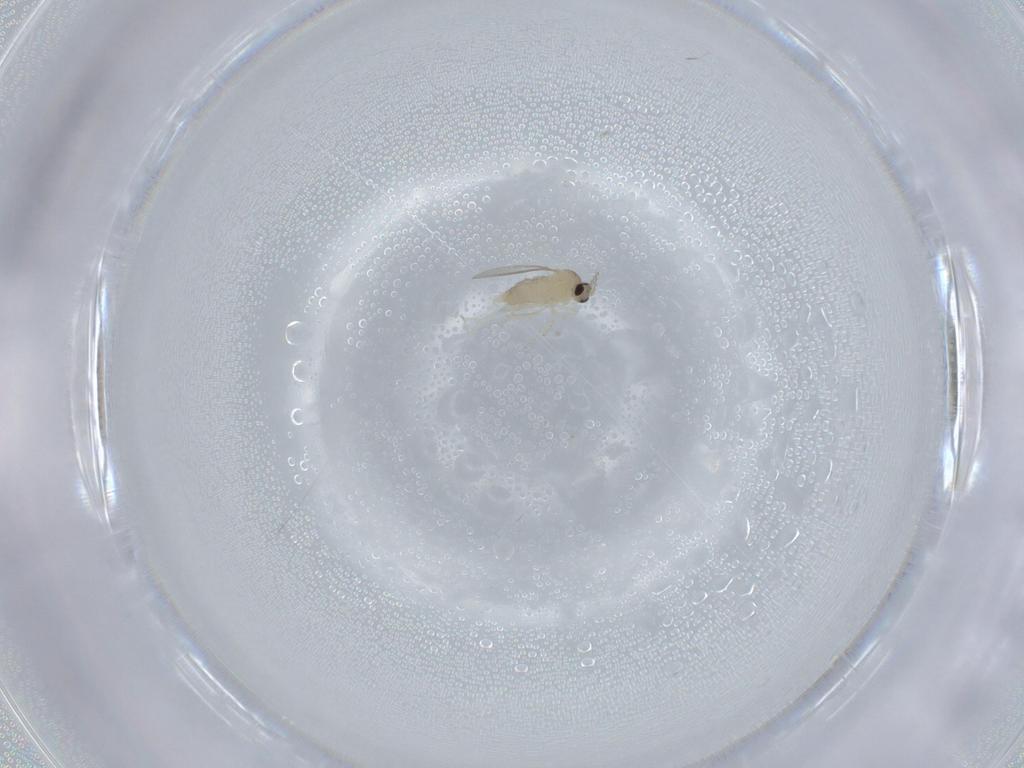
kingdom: Animalia
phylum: Arthropoda
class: Insecta
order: Diptera
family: Cecidomyiidae
